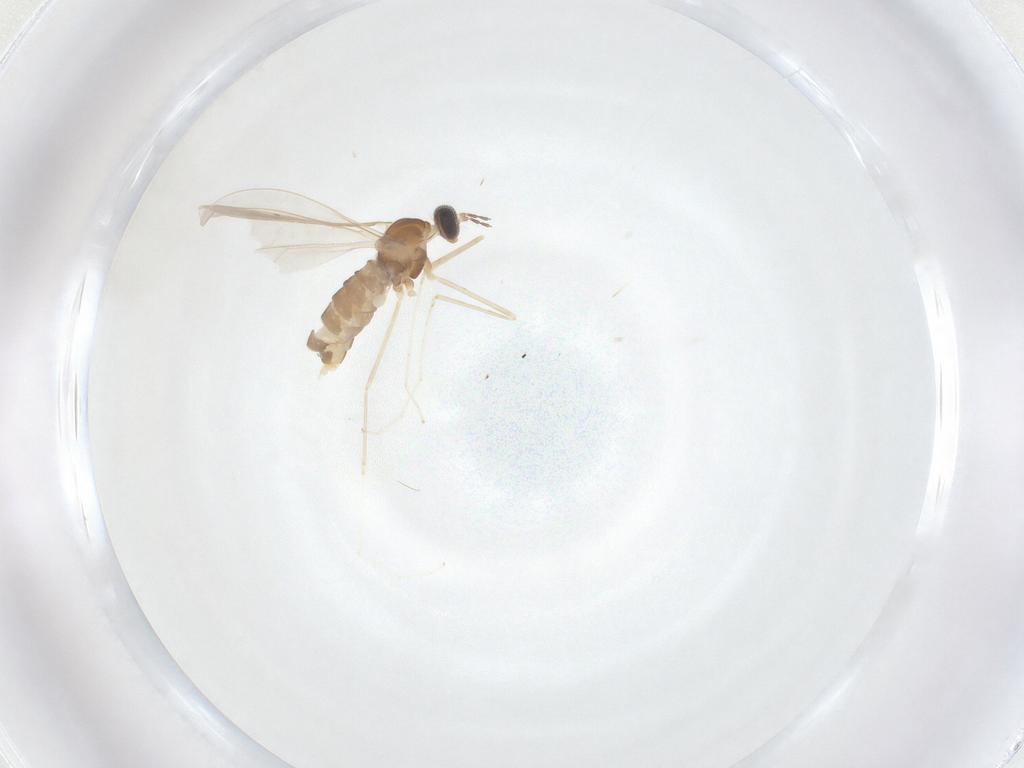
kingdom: Animalia
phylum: Arthropoda
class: Insecta
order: Diptera
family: Cecidomyiidae
